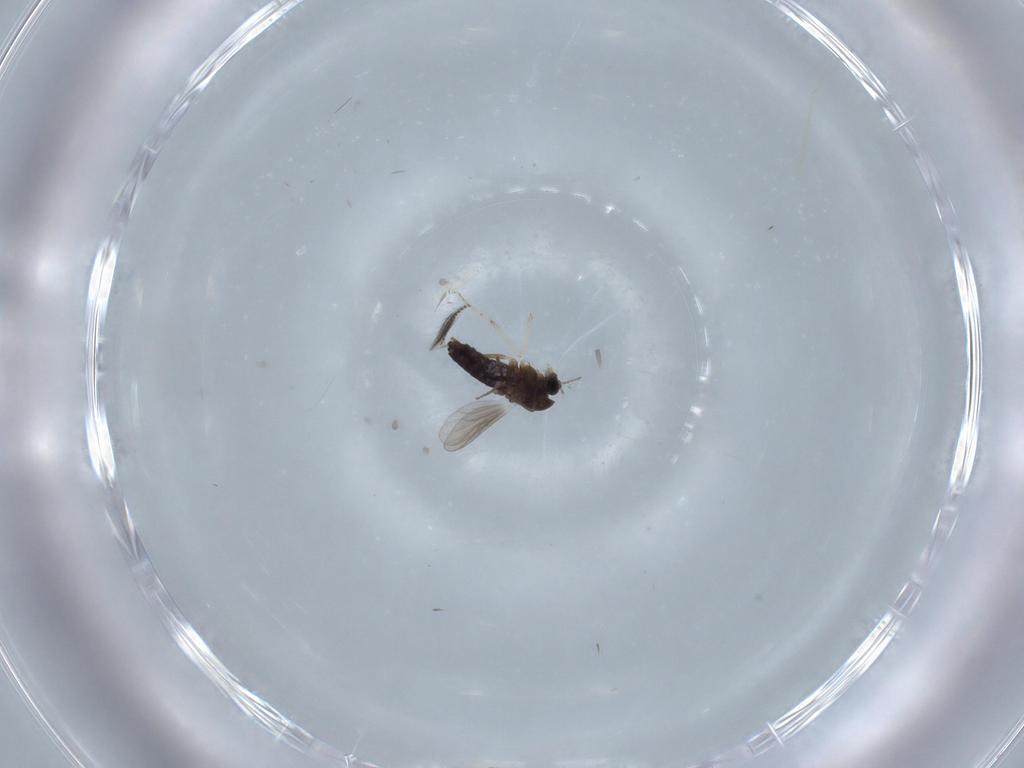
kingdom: Animalia
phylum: Arthropoda
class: Insecta
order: Diptera
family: Chironomidae
